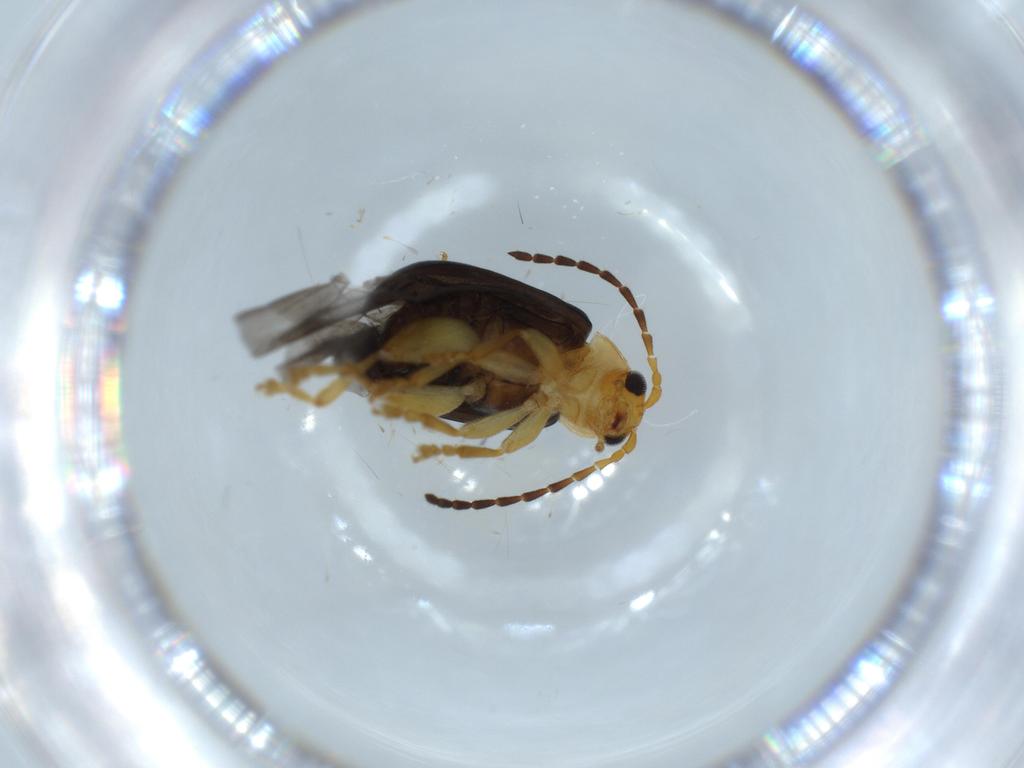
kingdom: Animalia
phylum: Arthropoda
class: Insecta
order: Coleoptera
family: Chrysomelidae
